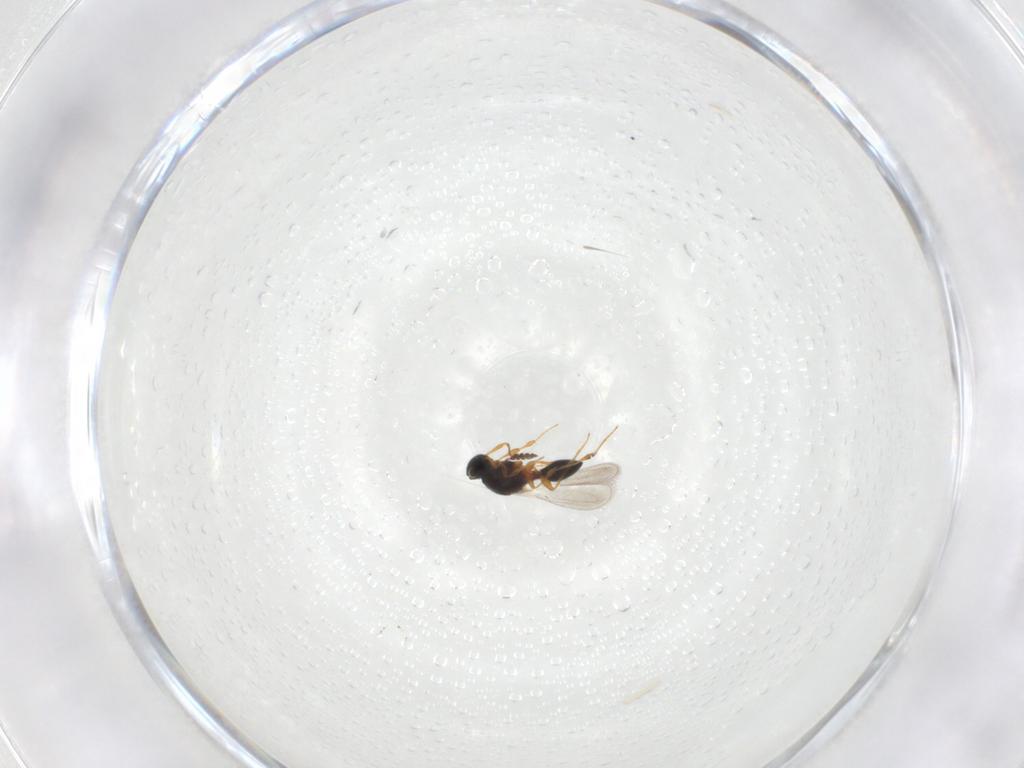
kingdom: Animalia
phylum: Arthropoda
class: Insecta
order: Hymenoptera
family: Platygastridae
